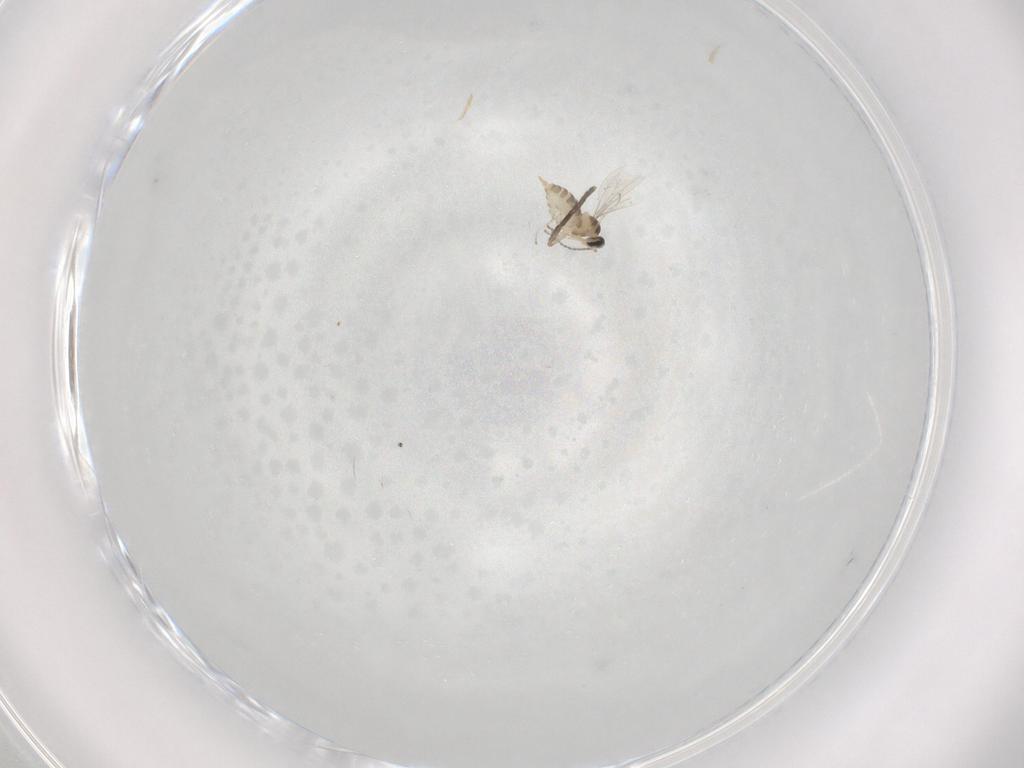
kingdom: Animalia
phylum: Arthropoda
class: Insecta
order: Diptera
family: Cecidomyiidae
